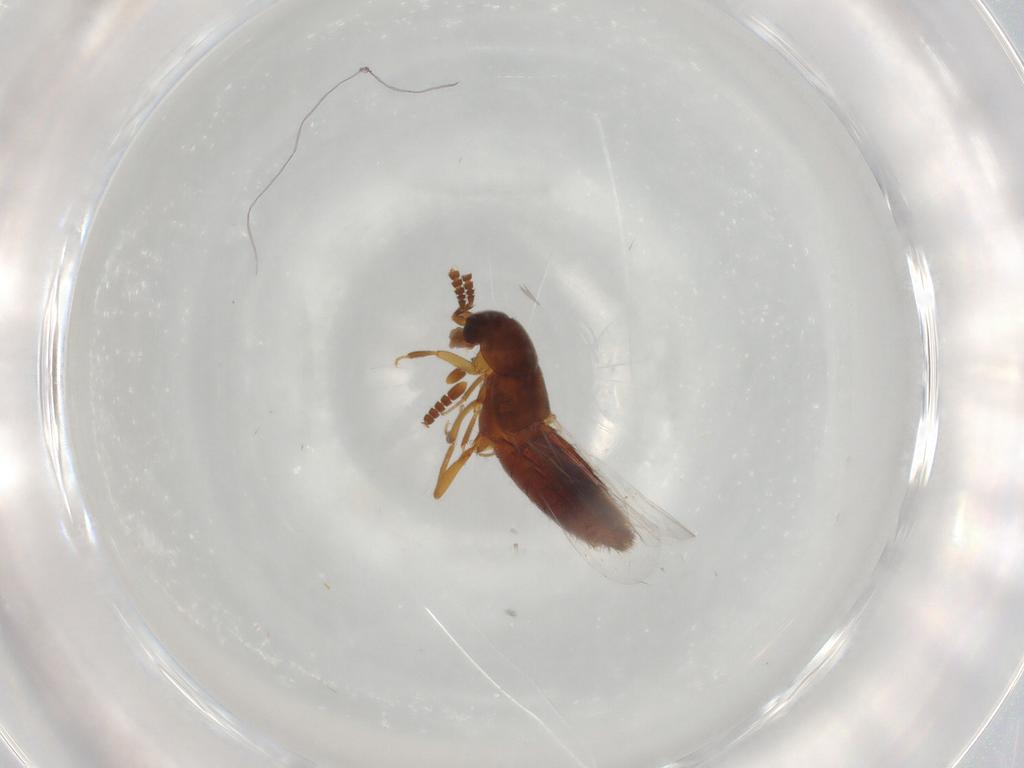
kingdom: Animalia
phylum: Arthropoda
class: Insecta
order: Coleoptera
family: Staphylinidae
